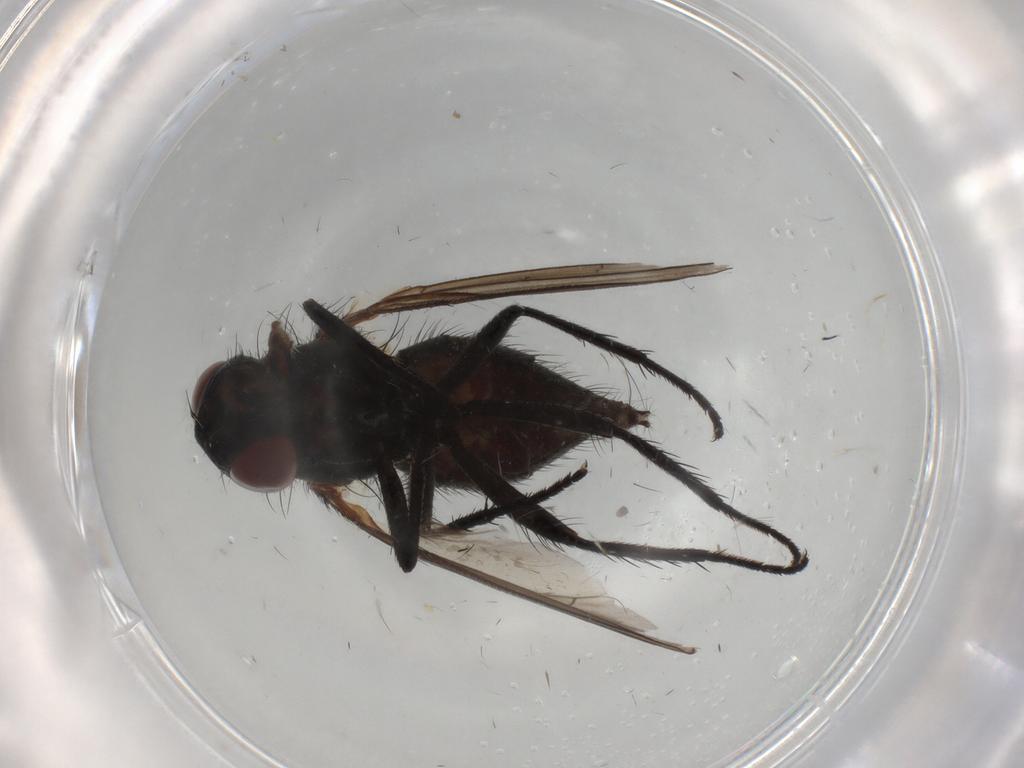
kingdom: Animalia
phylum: Arthropoda
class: Insecta
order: Diptera
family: Anthomyiidae
